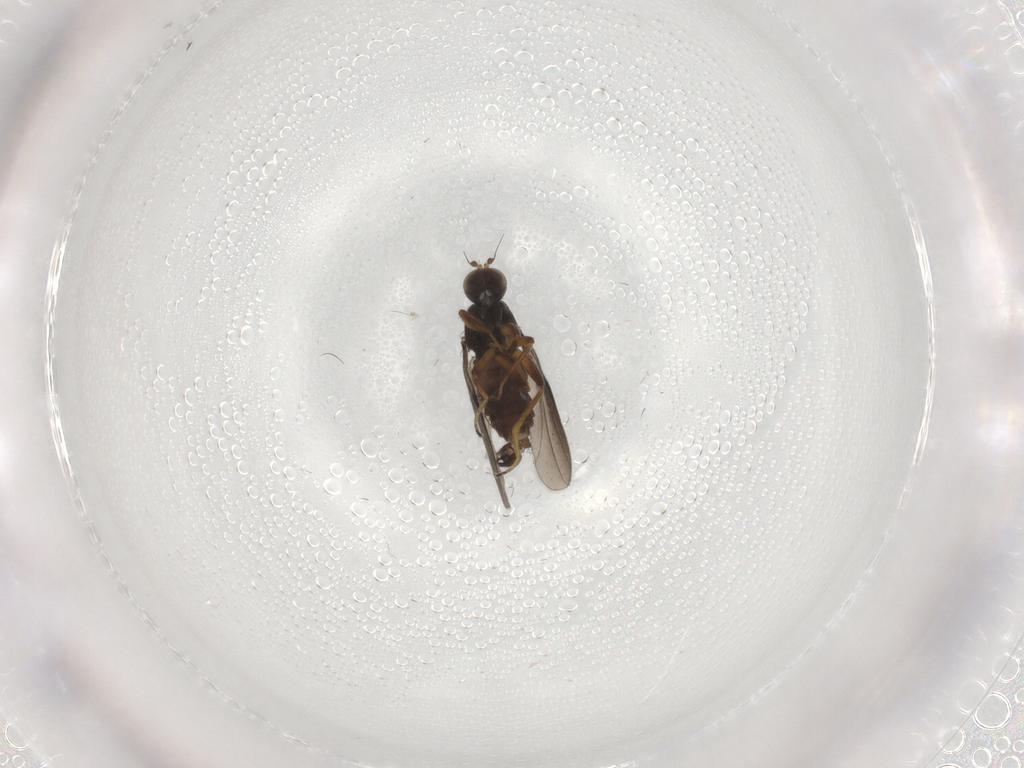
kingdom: Animalia
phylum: Arthropoda
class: Insecta
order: Diptera
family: Hybotidae
